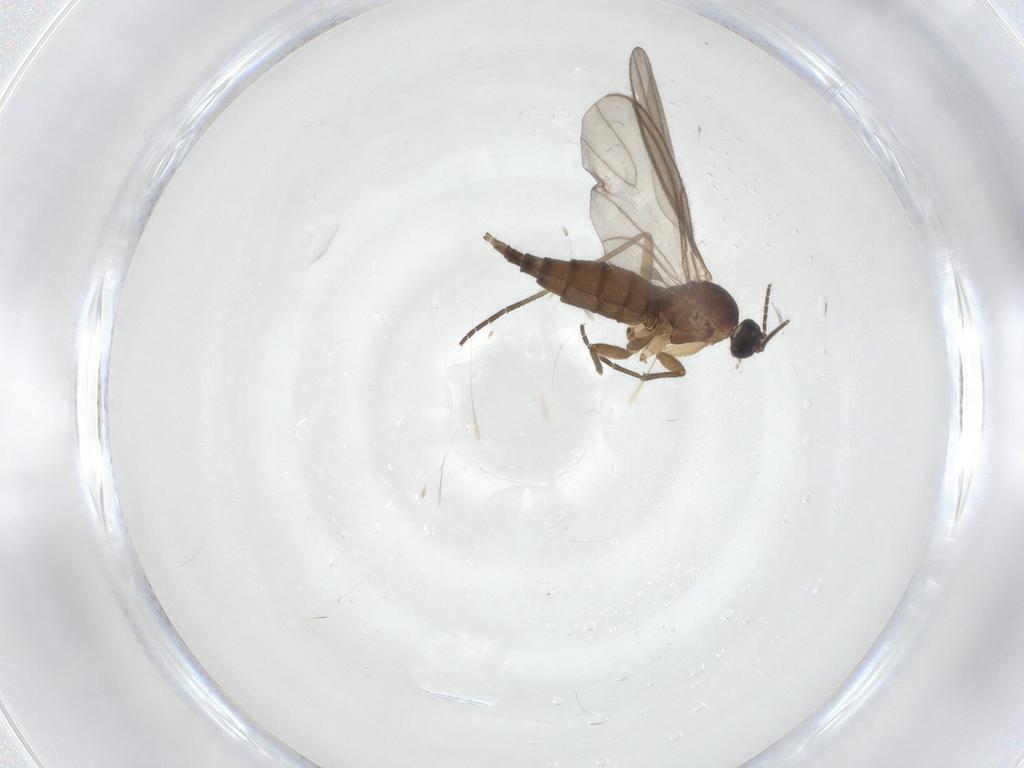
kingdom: Animalia
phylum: Arthropoda
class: Insecta
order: Diptera
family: Sciaridae
